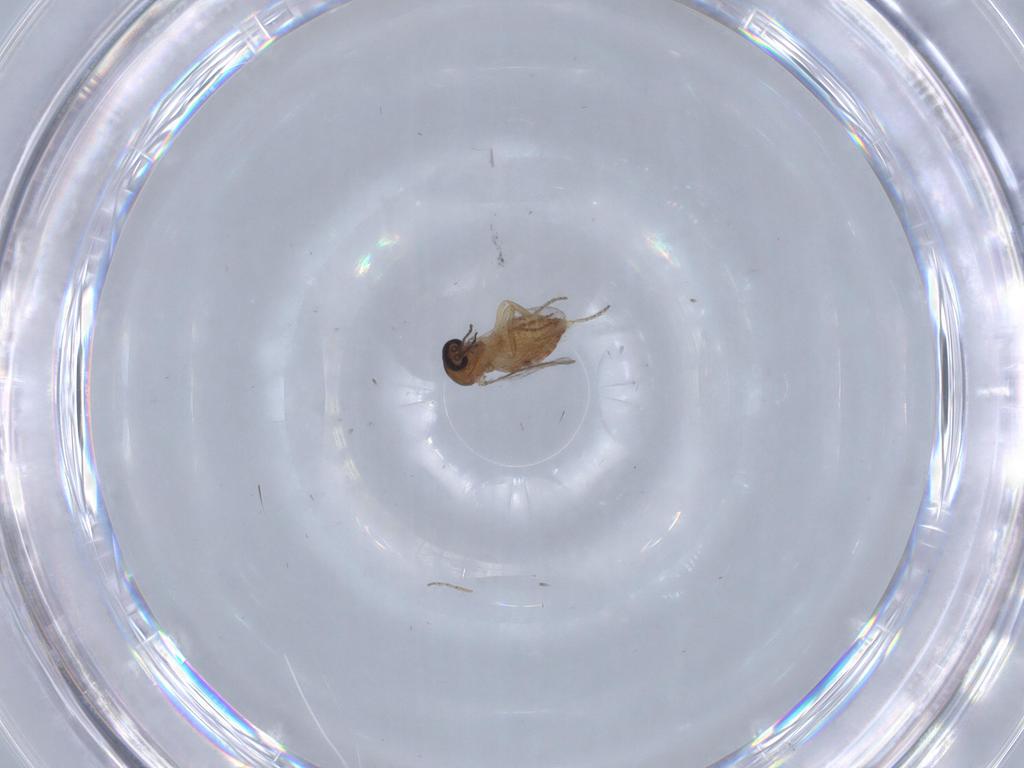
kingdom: Animalia
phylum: Arthropoda
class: Insecta
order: Diptera
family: Ceratopogonidae
